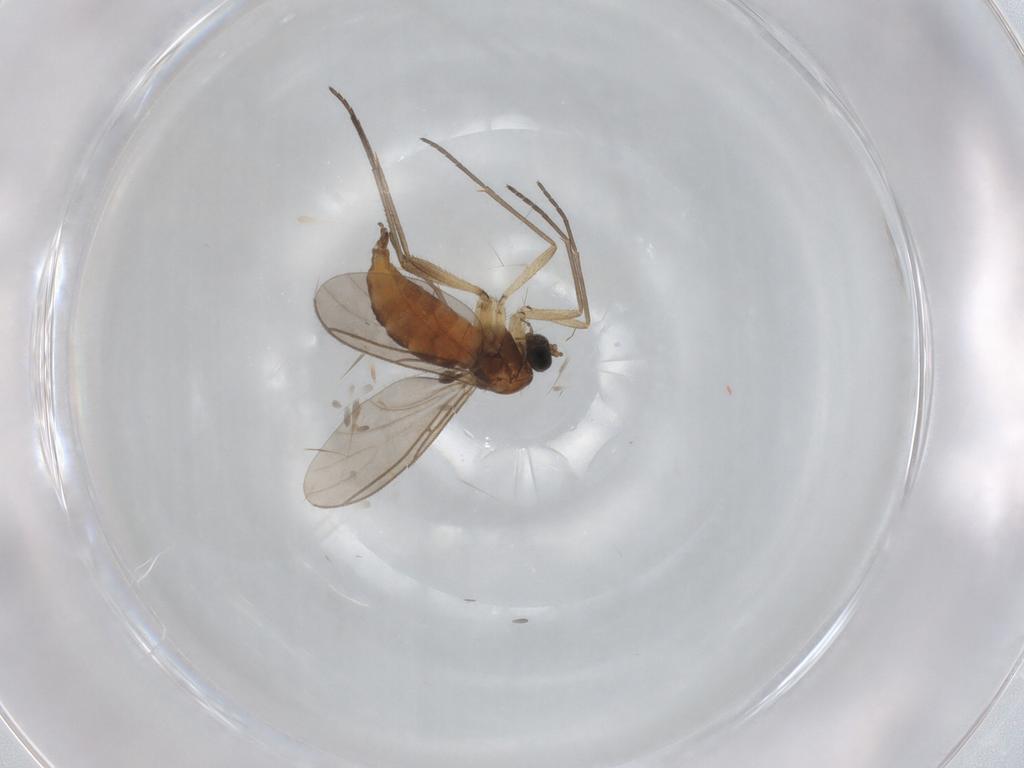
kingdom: Animalia
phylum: Arthropoda
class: Insecta
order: Diptera
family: Sciaridae
